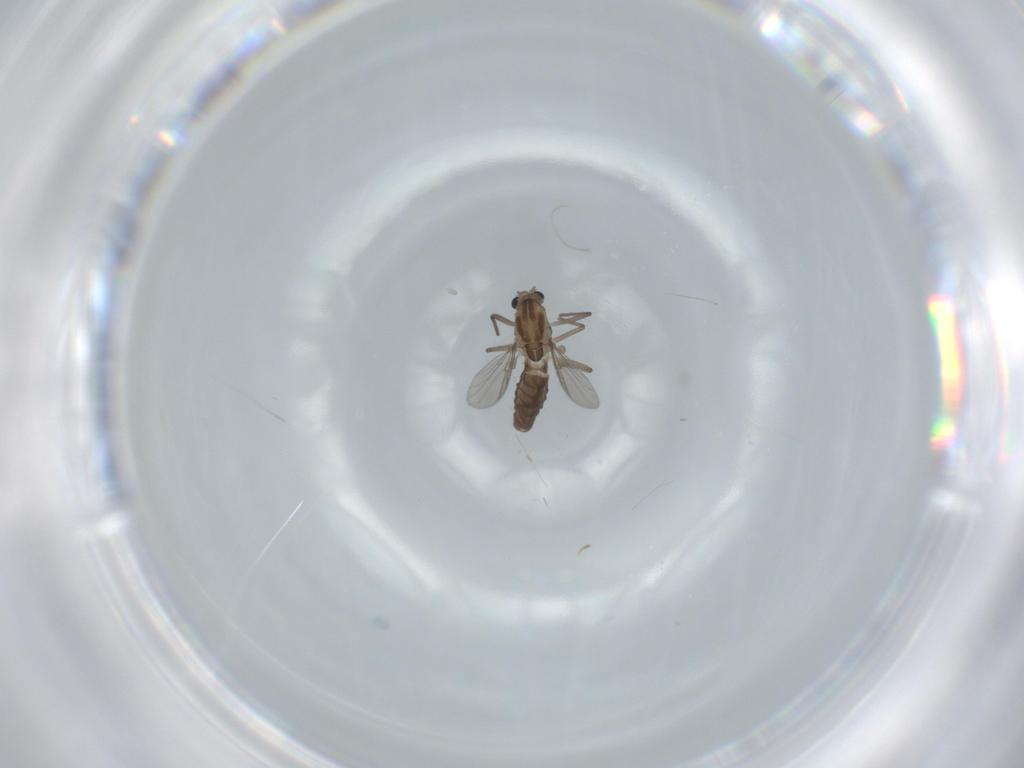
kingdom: Animalia
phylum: Arthropoda
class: Insecta
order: Diptera
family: Chironomidae
